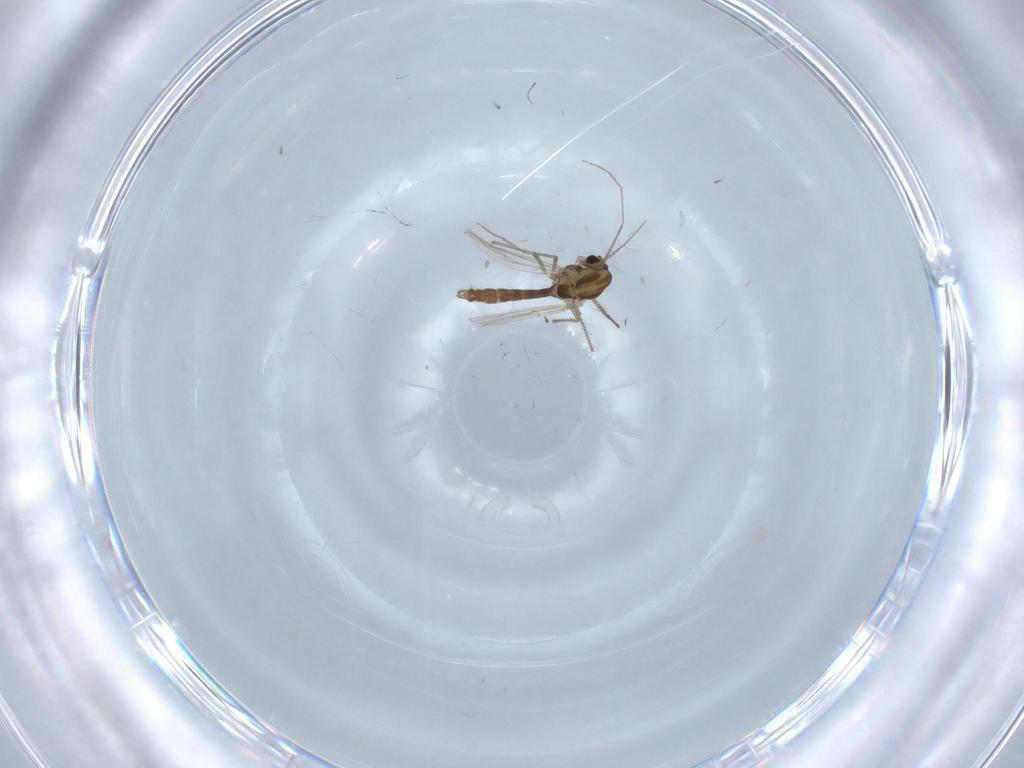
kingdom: Animalia
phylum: Arthropoda
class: Insecta
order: Diptera
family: Chironomidae
